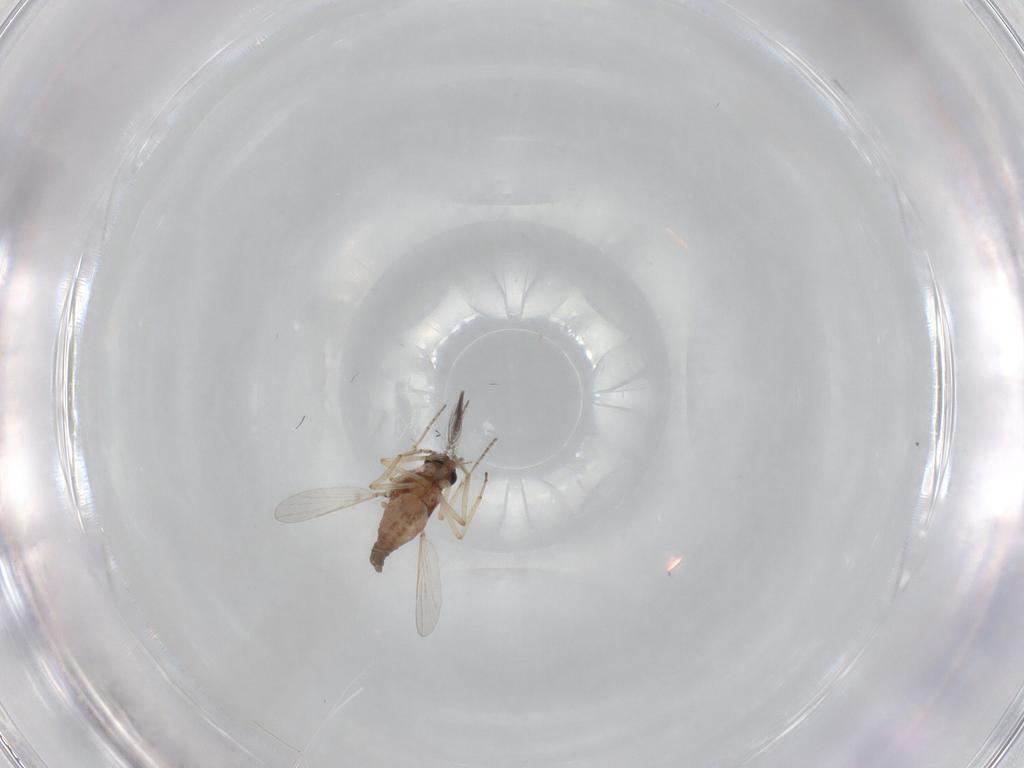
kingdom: Animalia
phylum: Arthropoda
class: Insecta
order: Diptera
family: Ceratopogonidae
